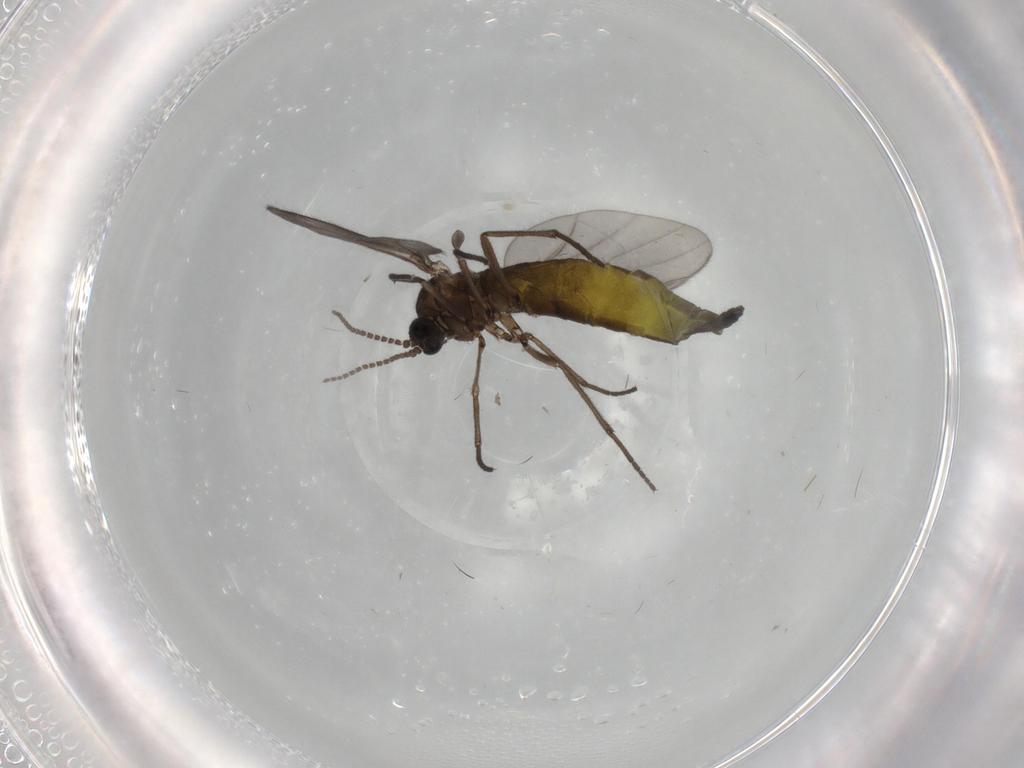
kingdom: Animalia
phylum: Arthropoda
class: Insecta
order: Diptera
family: Sciaridae
